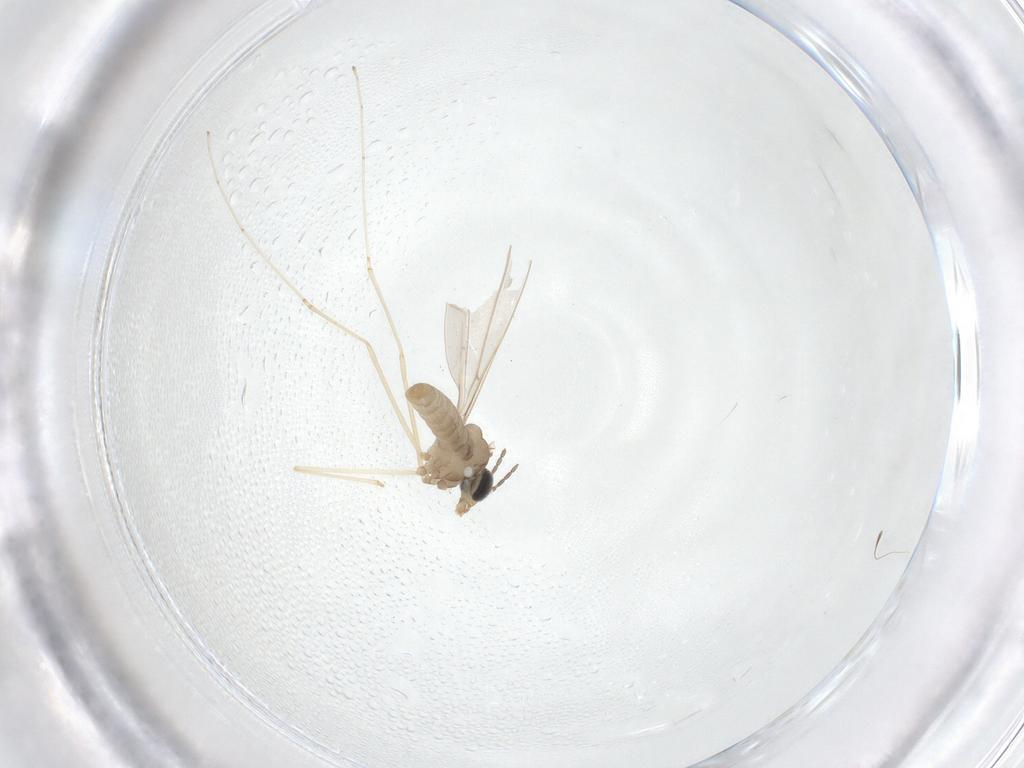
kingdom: Animalia
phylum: Arthropoda
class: Insecta
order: Diptera
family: Cecidomyiidae
